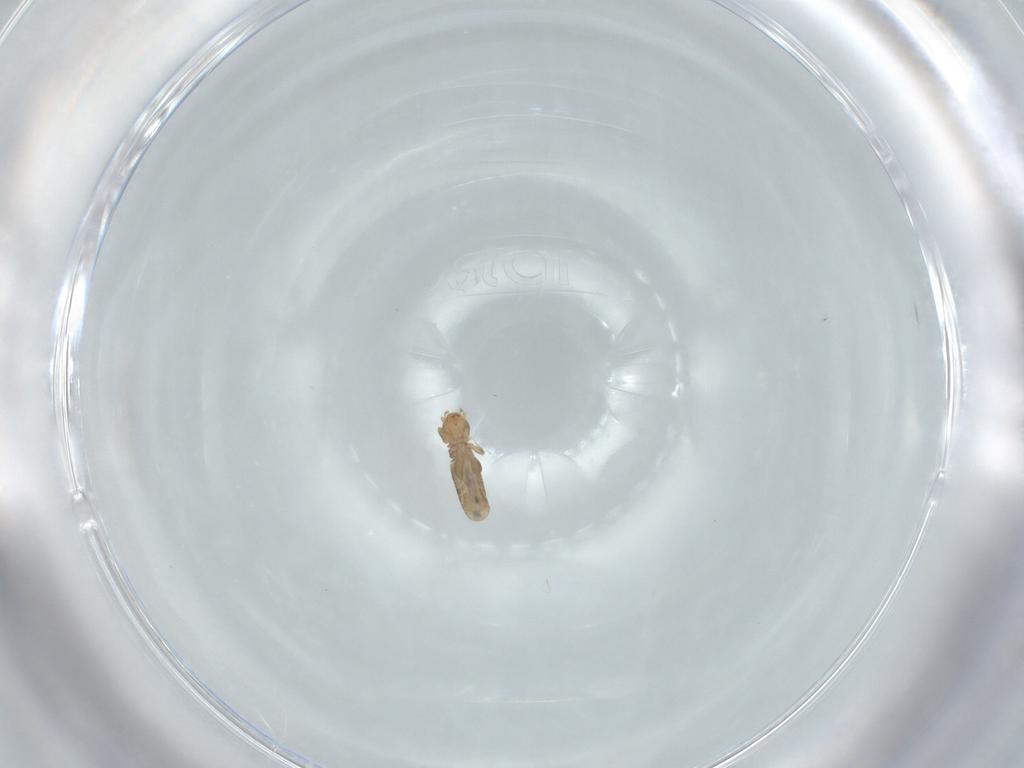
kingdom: Animalia
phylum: Arthropoda
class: Insecta
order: Psocodea
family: Liposcelididae
